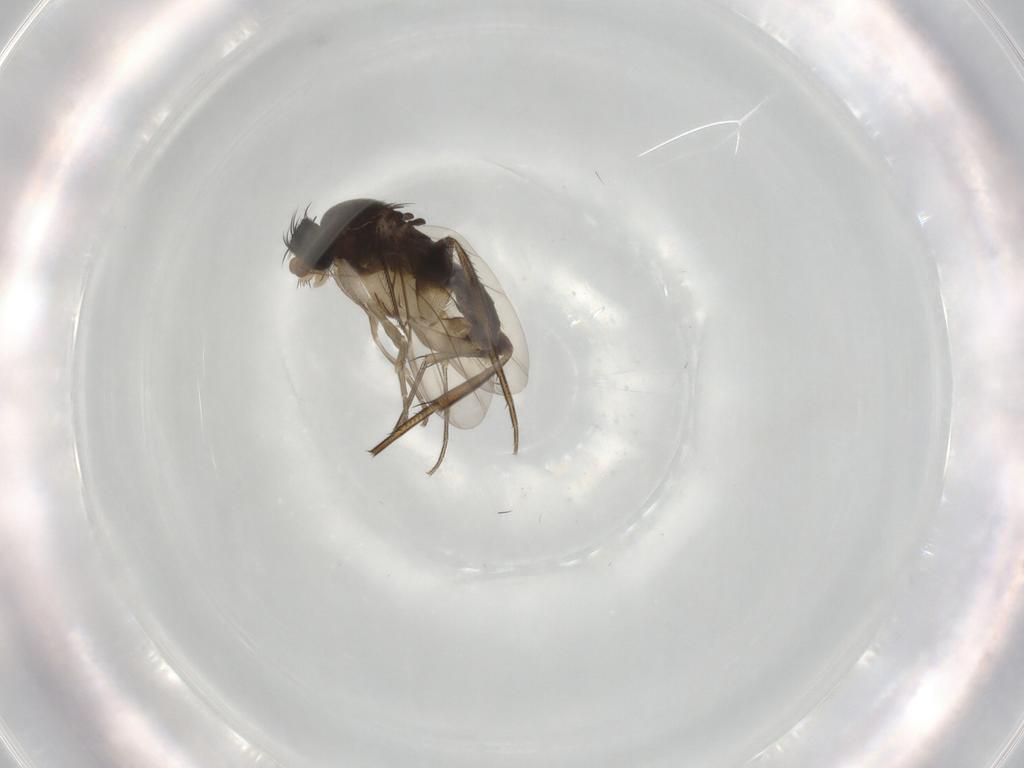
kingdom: Animalia
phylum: Arthropoda
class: Insecta
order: Diptera
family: Phoridae
